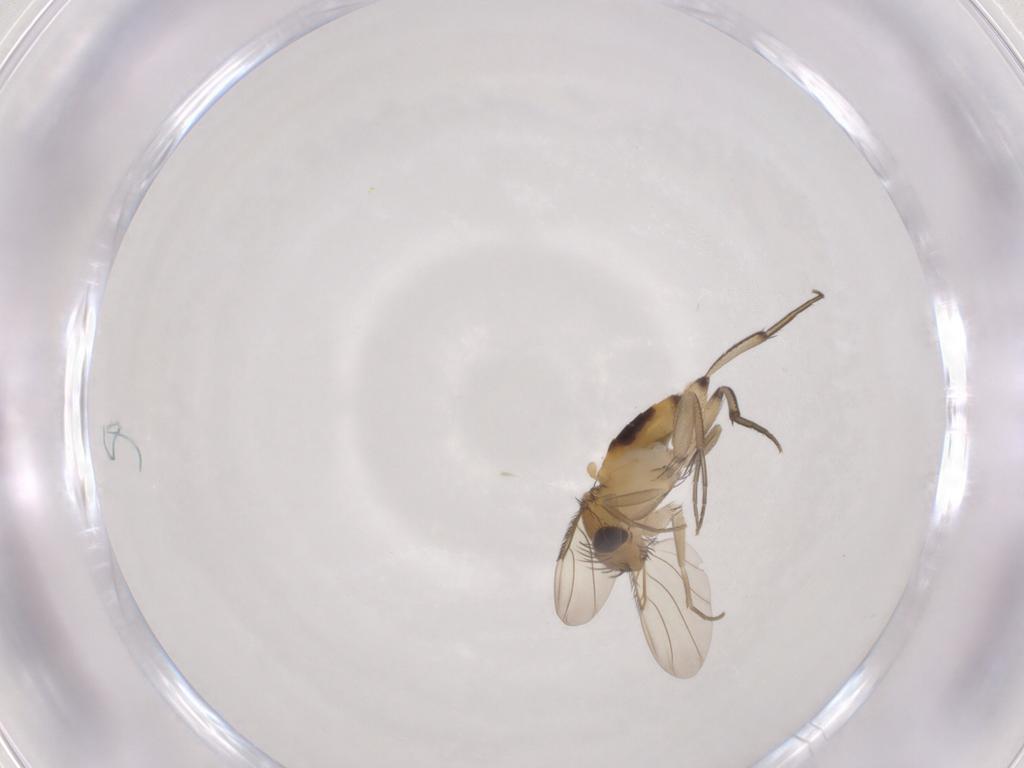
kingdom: Animalia
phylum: Arthropoda
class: Insecta
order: Diptera
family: Phoridae
